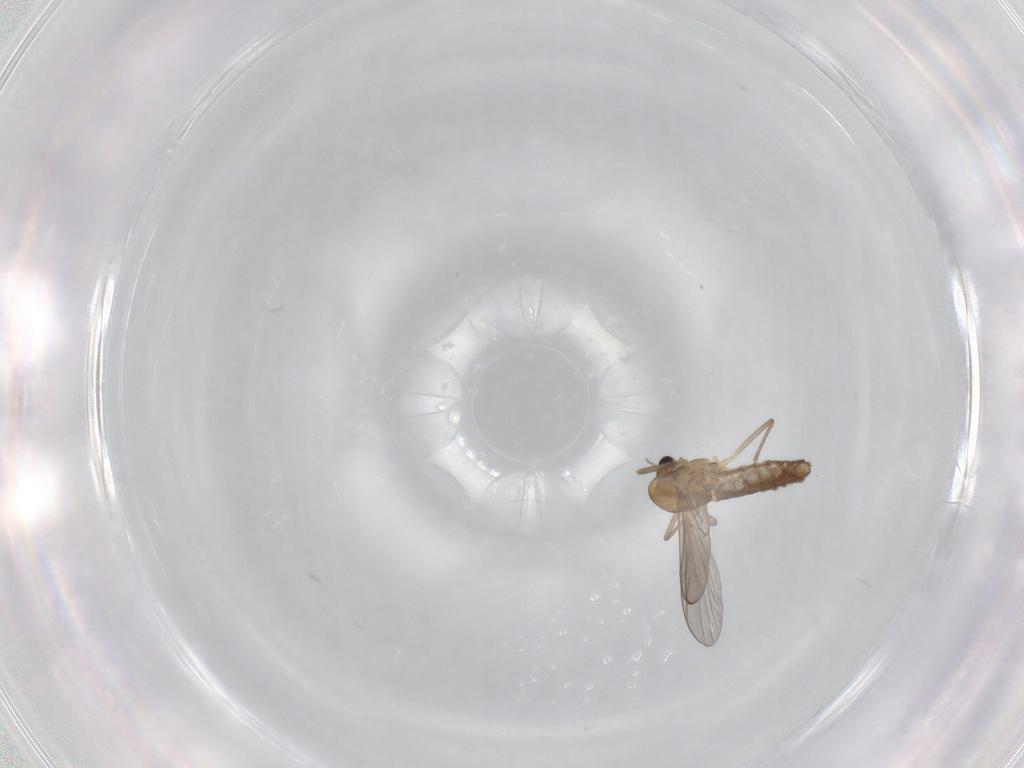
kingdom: Animalia
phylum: Arthropoda
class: Insecta
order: Diptera
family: Chironomidae
